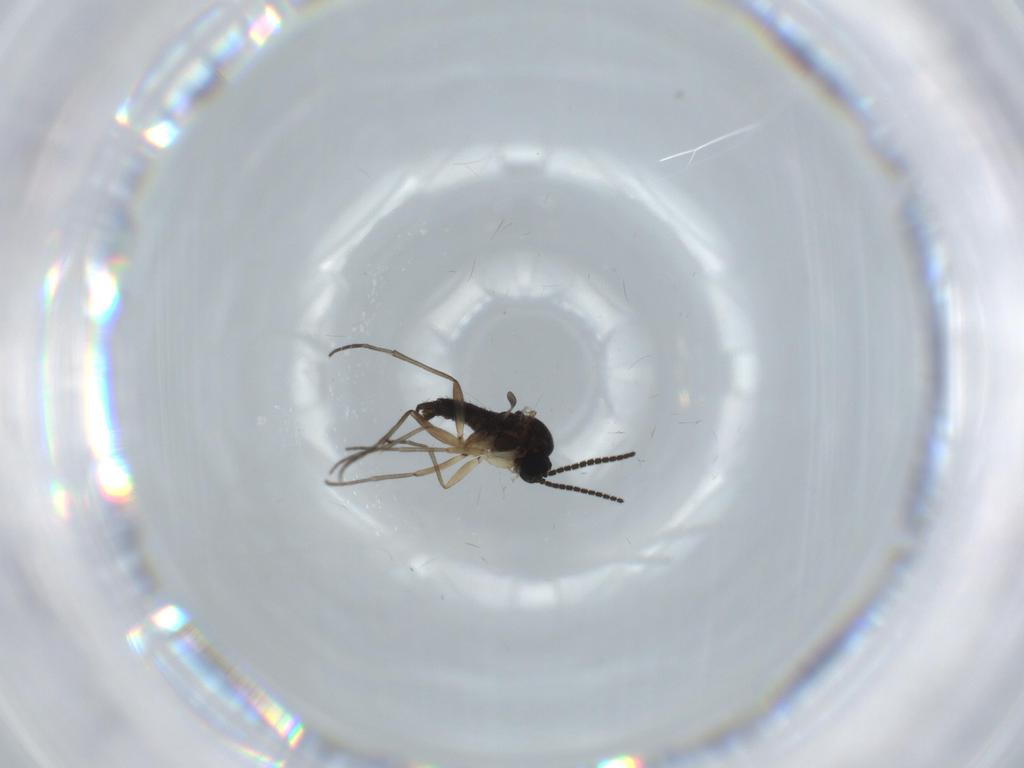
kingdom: Animalia
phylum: Arthropoda
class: Insecta
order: Diptera
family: Sciaridae
